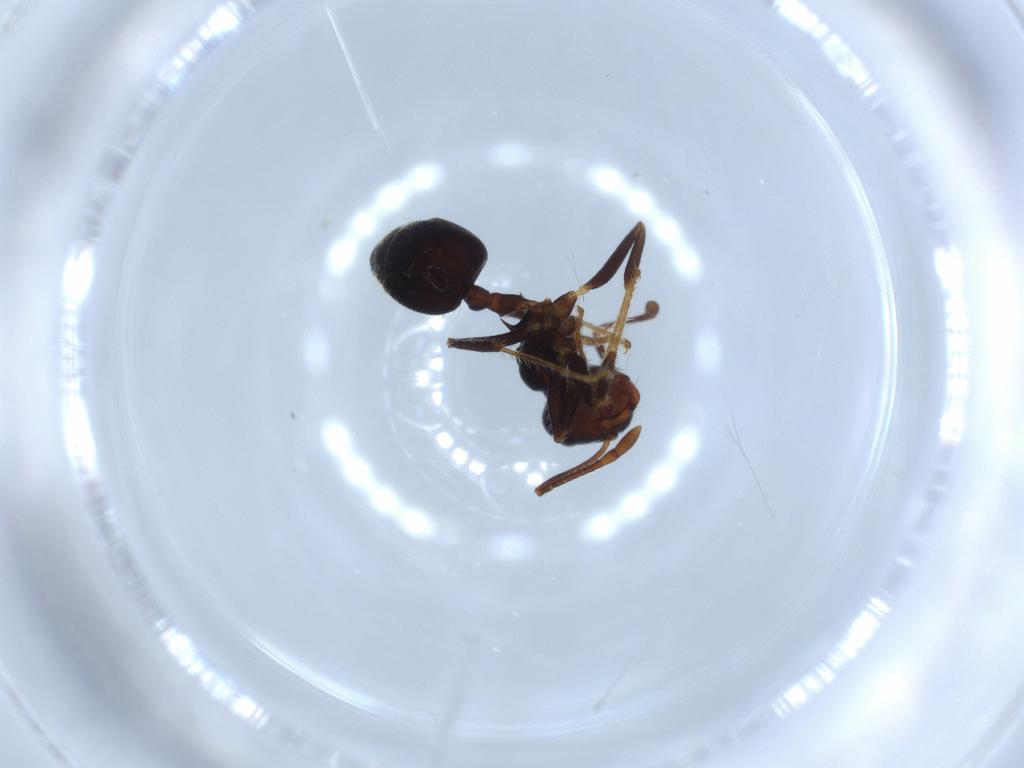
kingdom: Animalia
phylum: Arthropoda
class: Insecta
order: Hymenoptera
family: Formicidae
